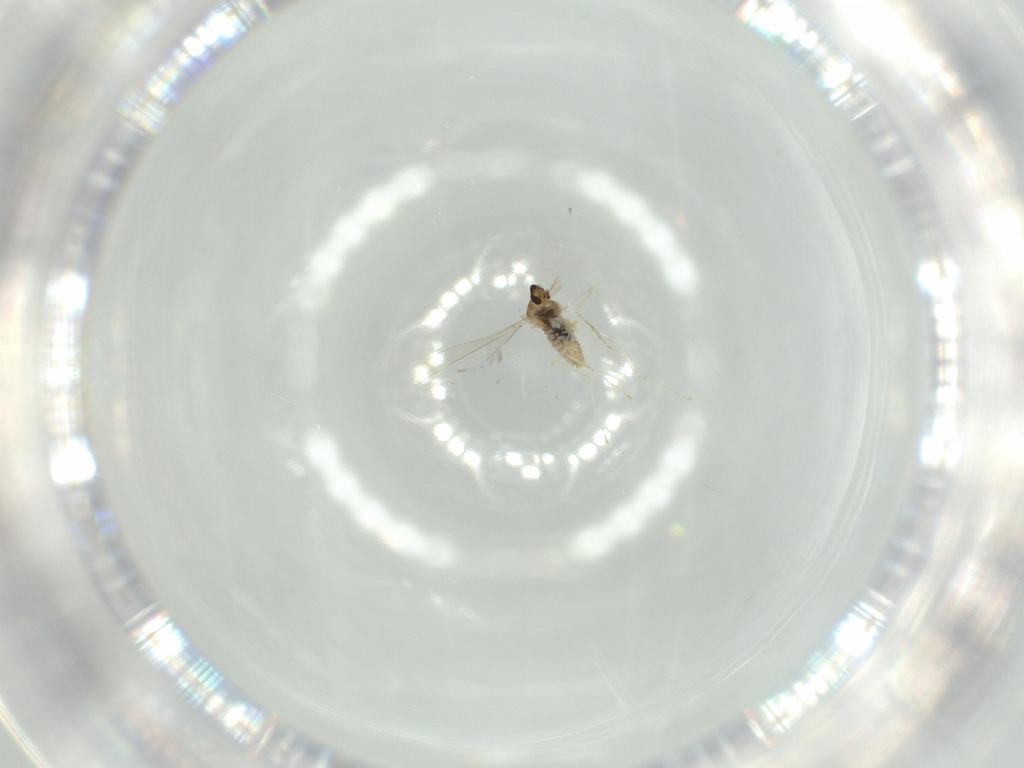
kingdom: Animalia
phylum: Arthropoda
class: Insecta
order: Diptera
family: Cecidomyiidae
